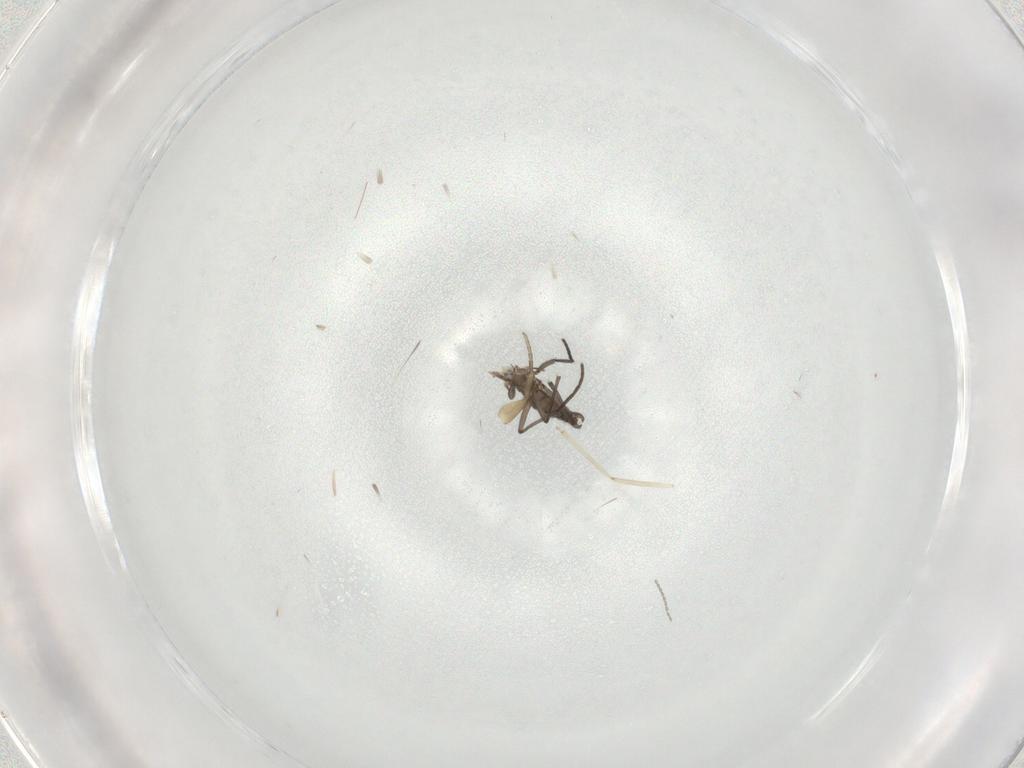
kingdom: Animalia
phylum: Arthropoda
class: Insecta
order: Diptera
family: Cecidomyiidae
